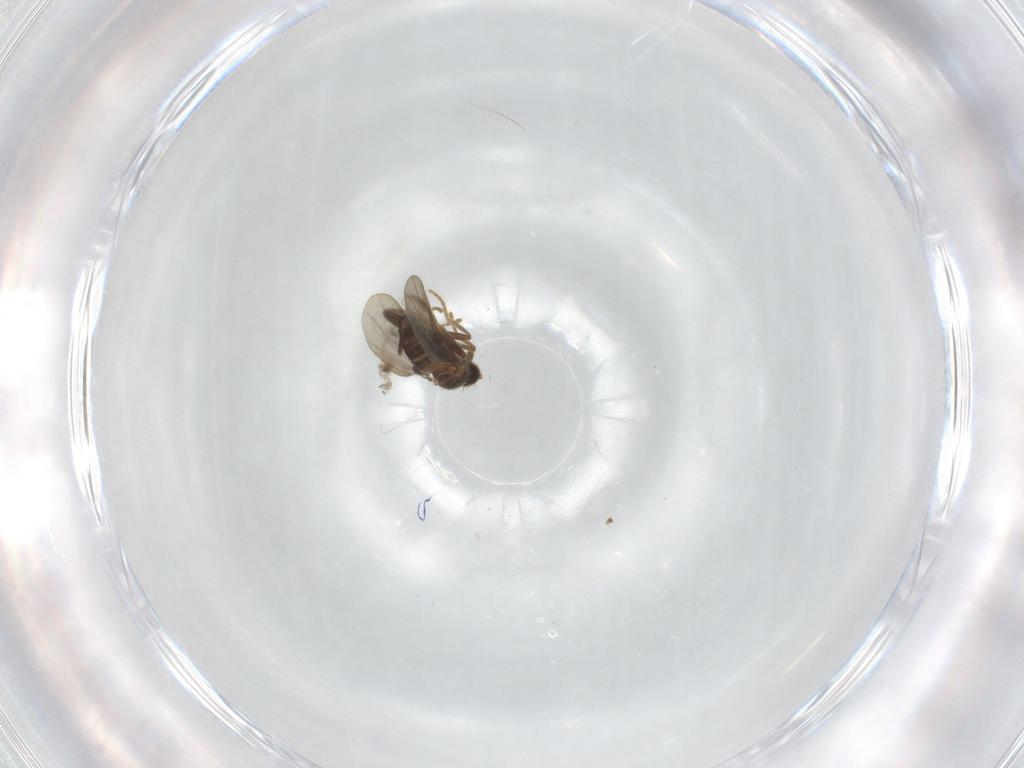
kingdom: Animalia
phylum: Arthropoda
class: Insecta
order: Diptera
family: Phoridae
